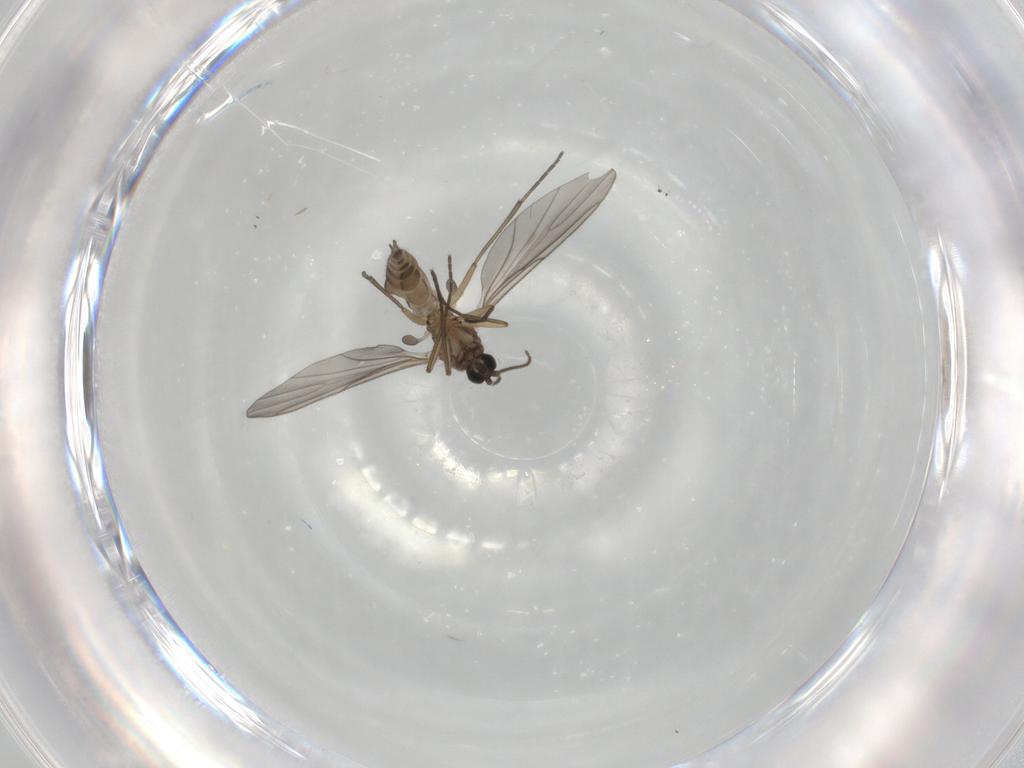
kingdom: Animalia
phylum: Arthropoda
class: Insecta
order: Diptera
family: Sciaridae
